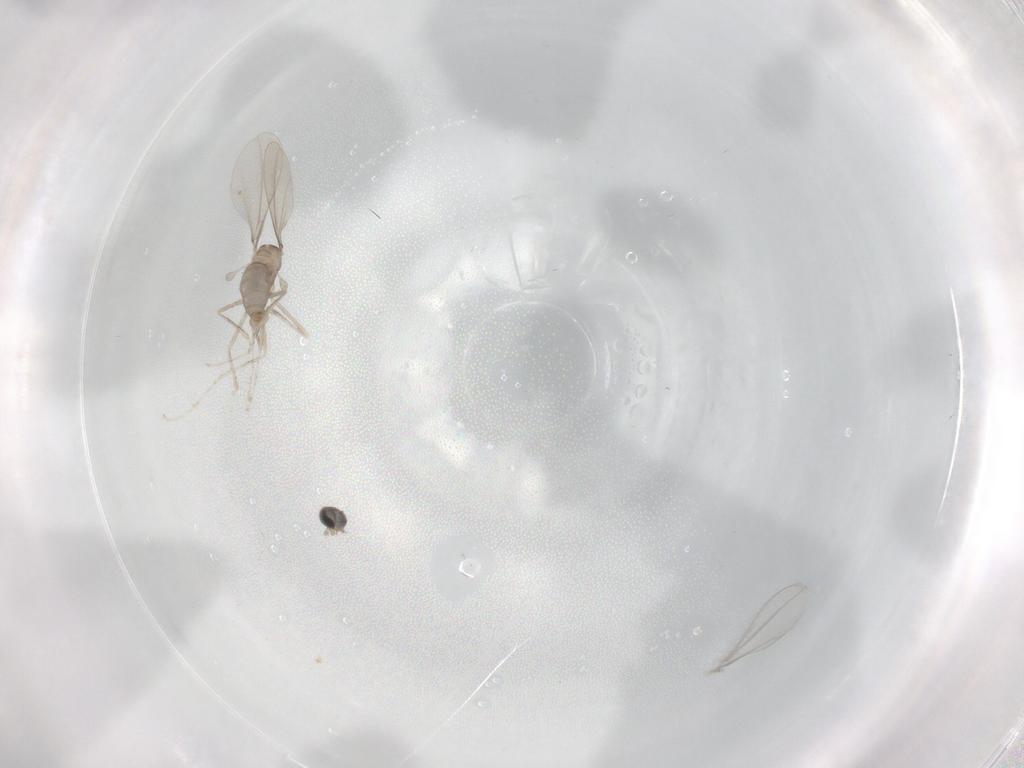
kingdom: Animalia
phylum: Arthropoda
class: Insecta
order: Diptera
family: Cecidomyiidae
